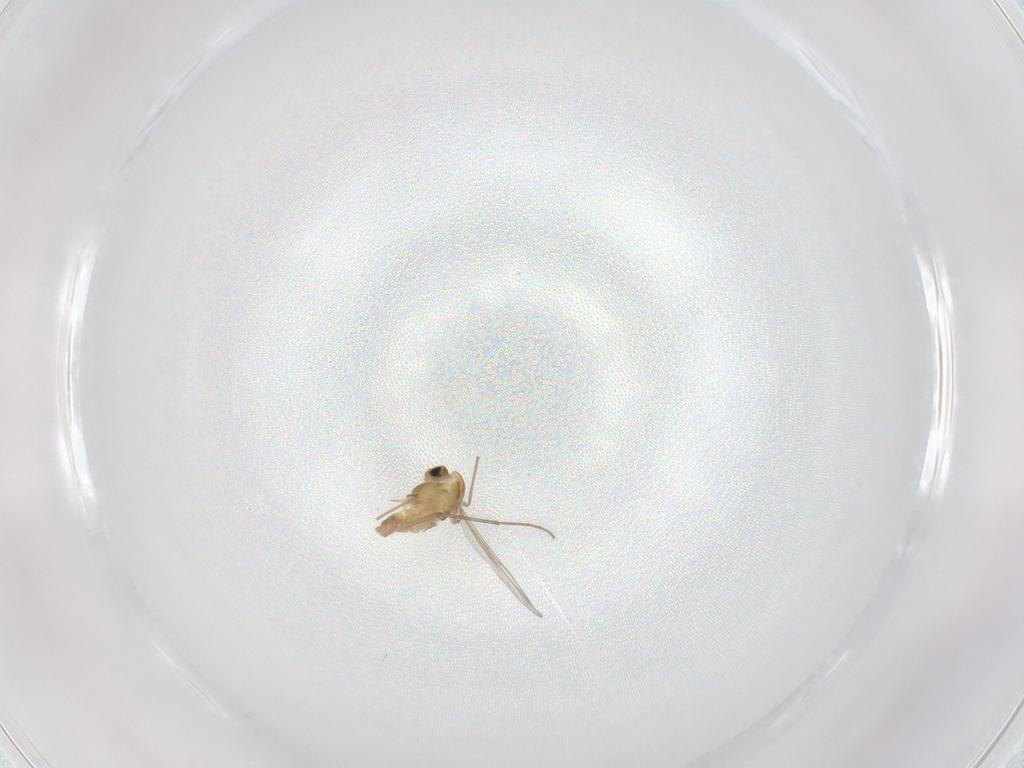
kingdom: Animalia
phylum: Arthropoda
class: Insecta
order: Diptera
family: Chironomidae
